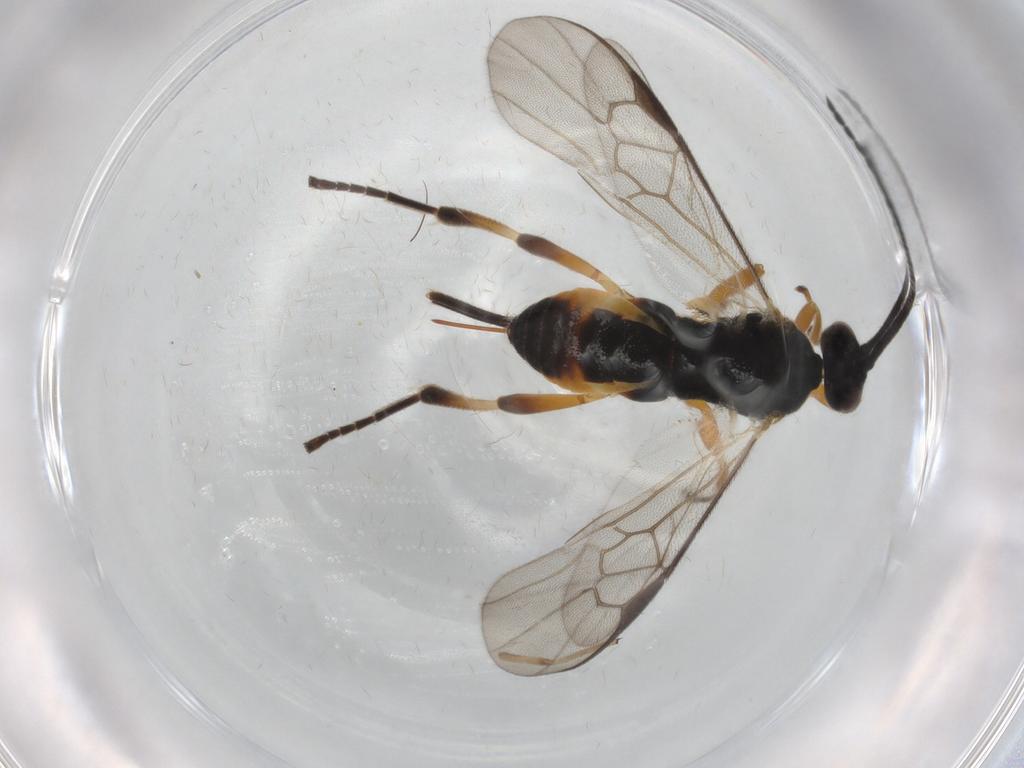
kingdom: Animalia
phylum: Arthropoda
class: Insecta
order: Hymenoptera
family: Braconidae
